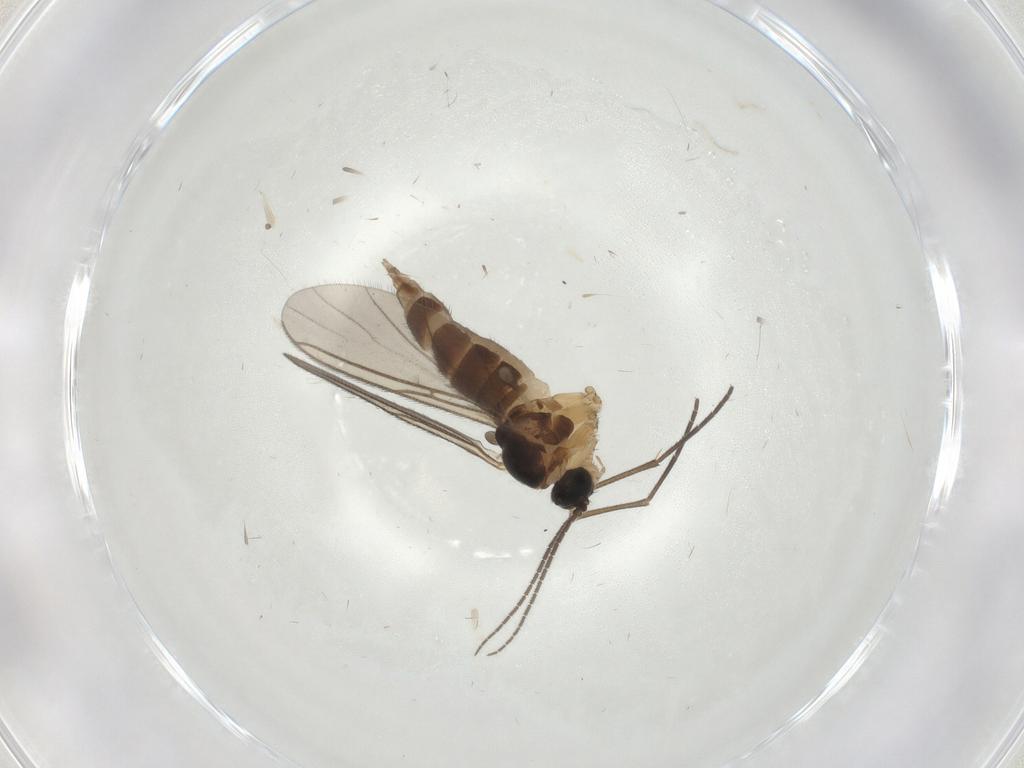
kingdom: Animalia
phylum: Arthropoda
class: Insecta
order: Diptera
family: Sciaridae
